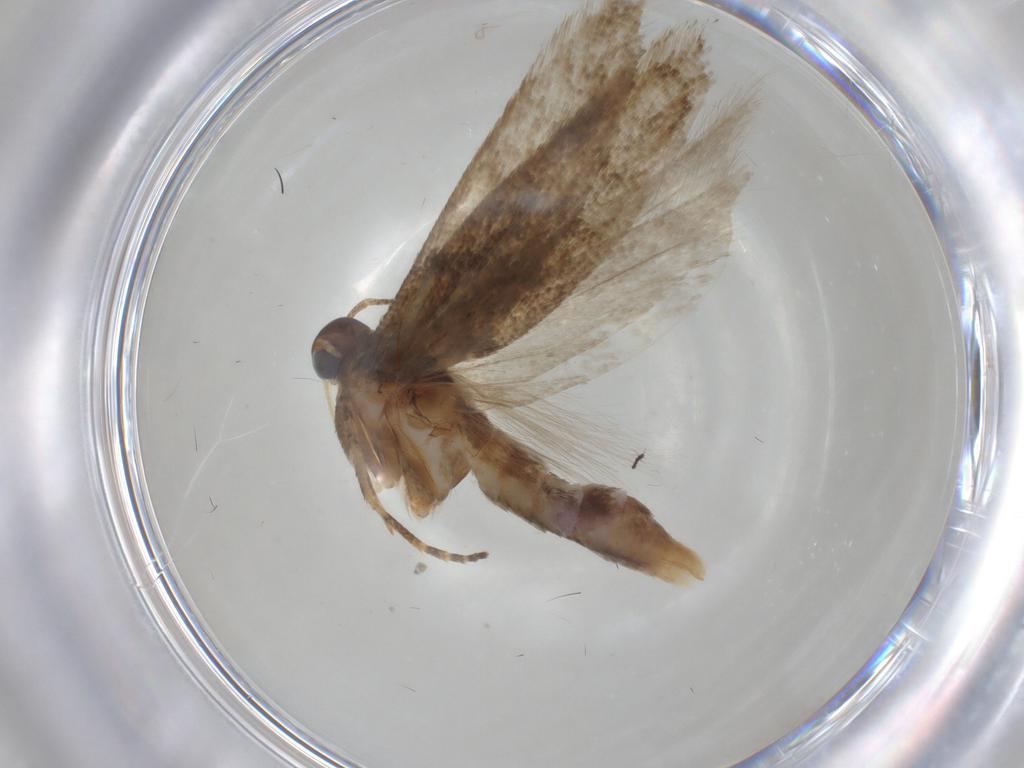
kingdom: Animalia
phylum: Arthropoda
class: Insecta
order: Lepidoptera
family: Gelechiidae
